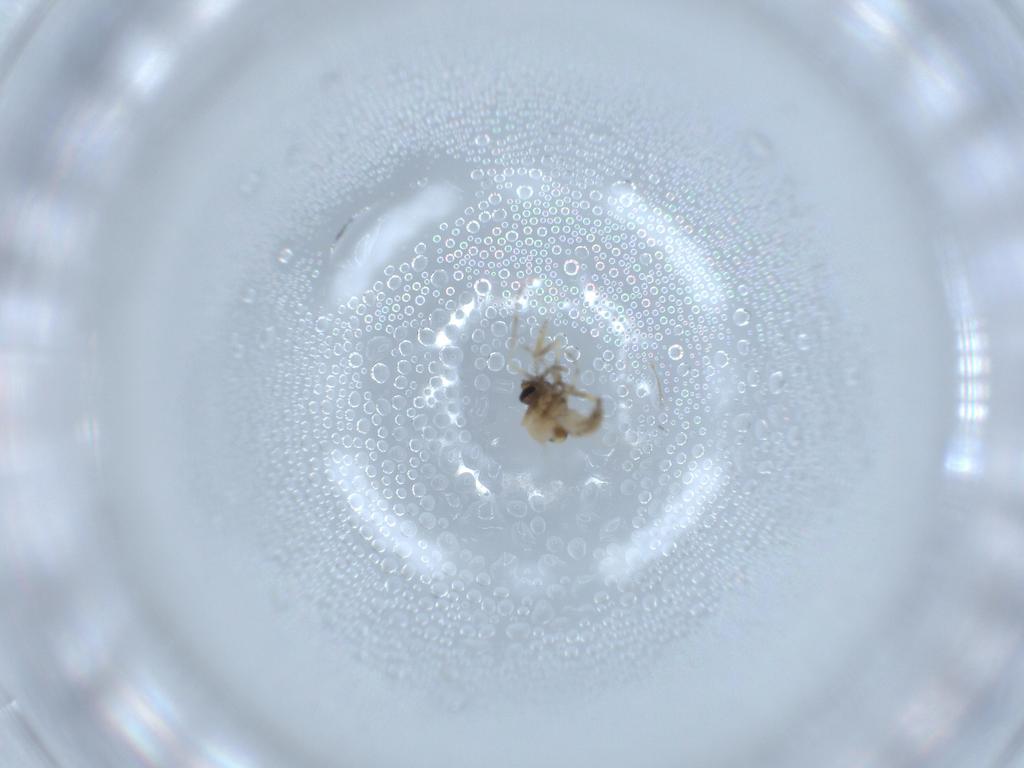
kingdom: Animalia
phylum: Arthropoda
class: Insecta
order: Diptera
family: Ceratopogonidae
